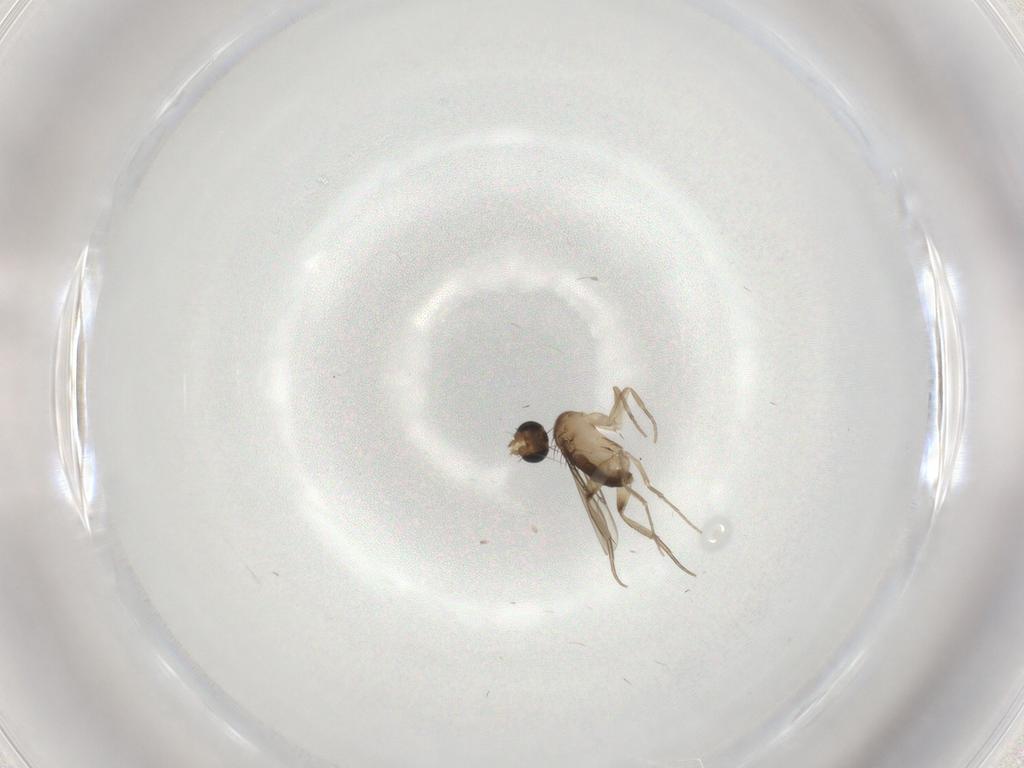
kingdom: Animalia
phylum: Arthropoda
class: Insecta
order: Diptera
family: Phoridae
